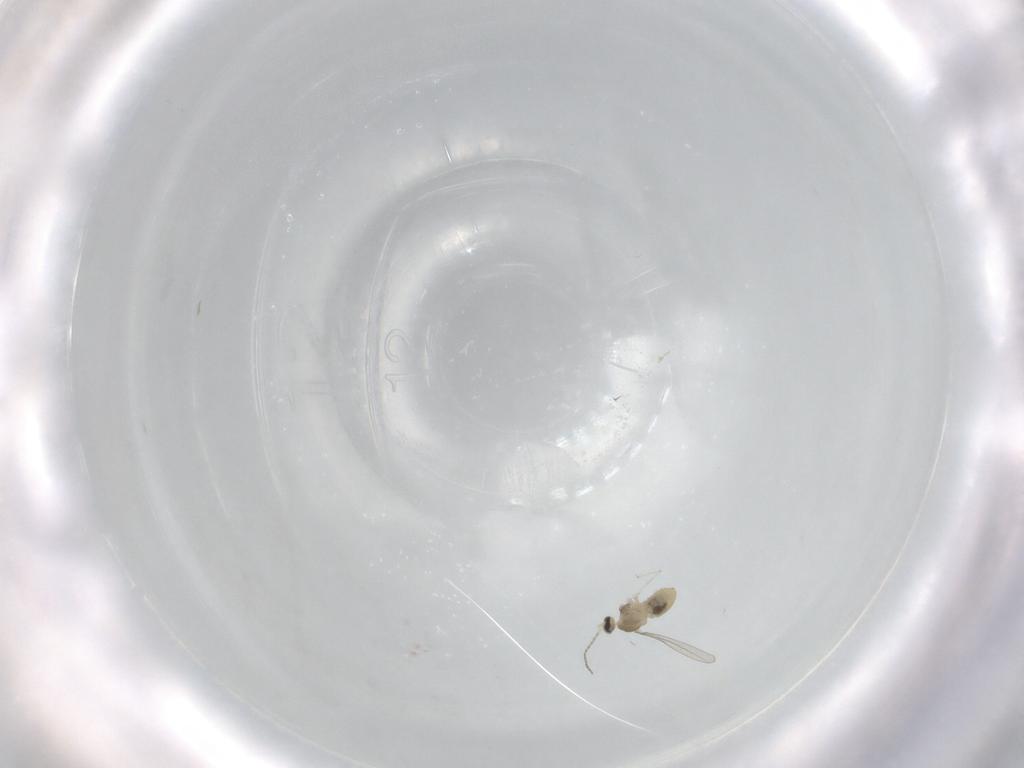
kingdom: Animalia
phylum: Arthropoda
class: Insecta
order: Diptera
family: Cecidomyiidae
